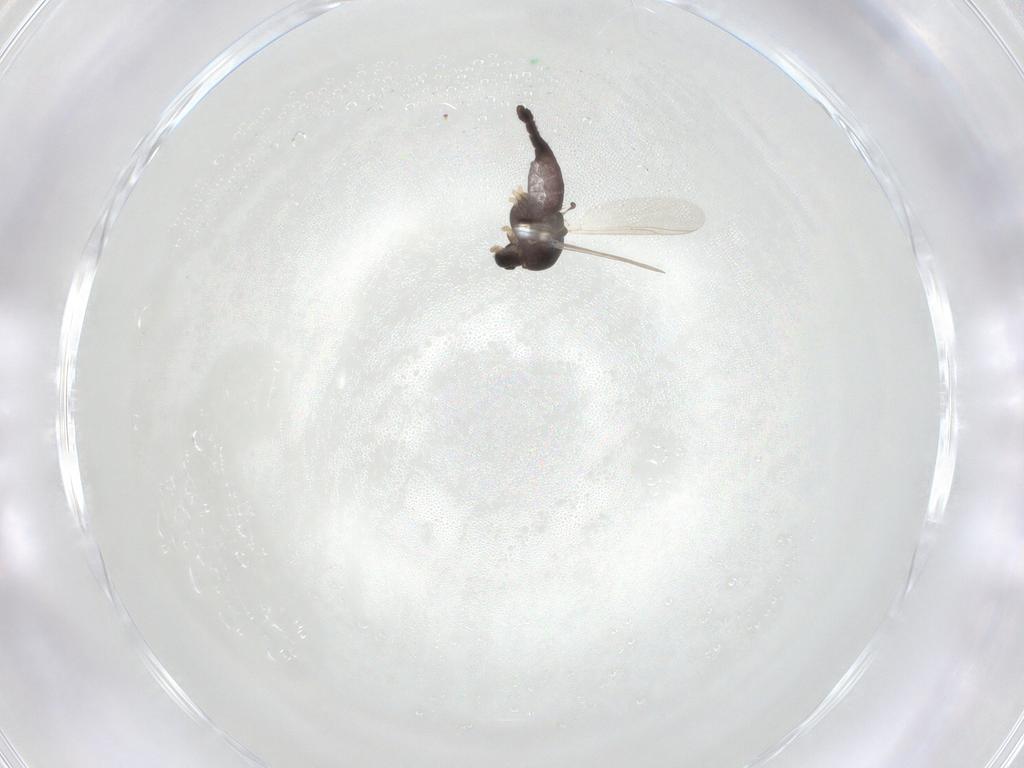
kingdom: Animalia
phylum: Arthropoda
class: Insecta
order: Diptera
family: Chironomidae
